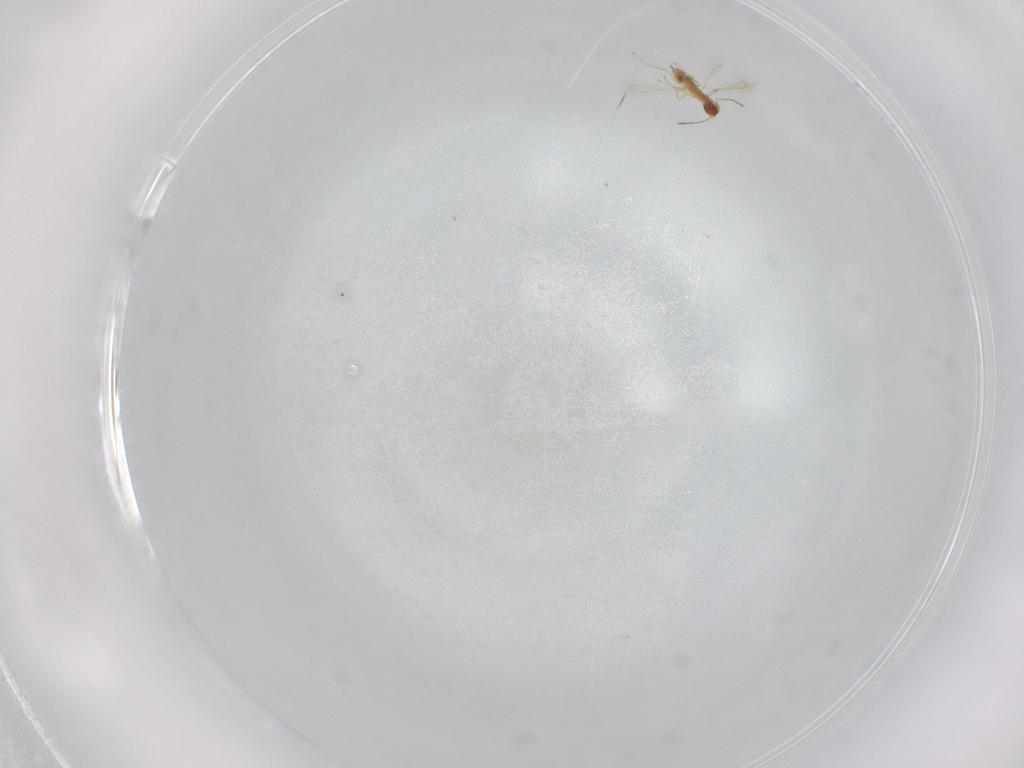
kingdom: Animalia
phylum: Arthropoda
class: Insecta
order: Hymenoptera
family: Mymaridae
